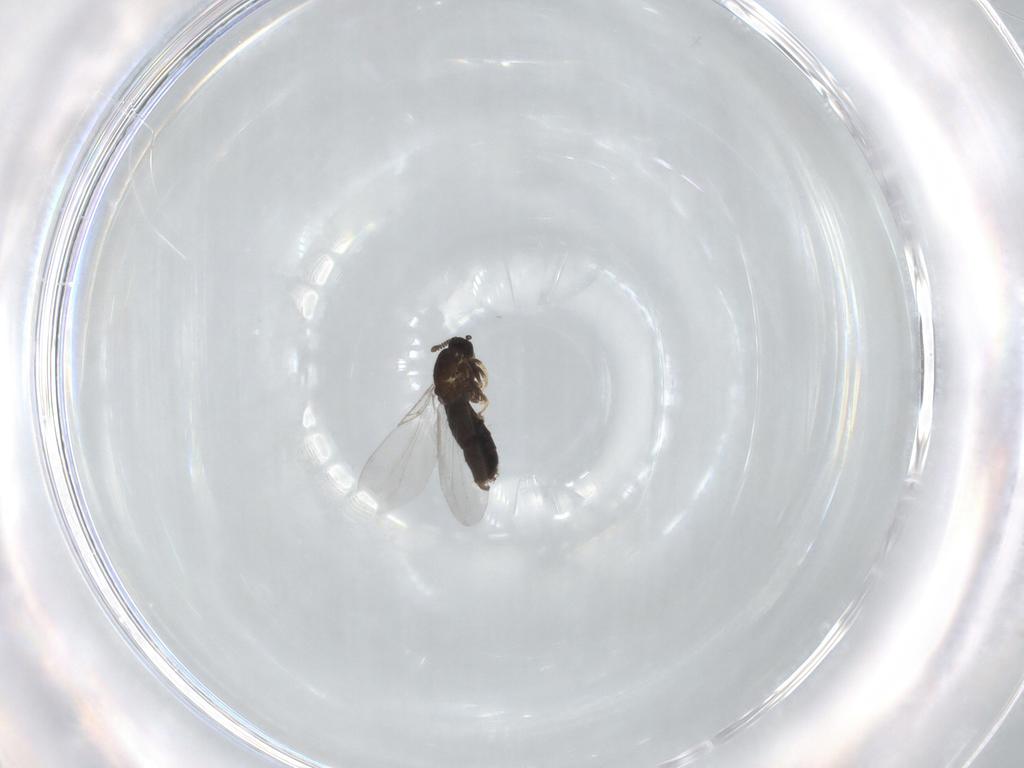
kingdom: Animalia
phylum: Arthropoda
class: Insecta
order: Diptera
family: Scatopsidae
